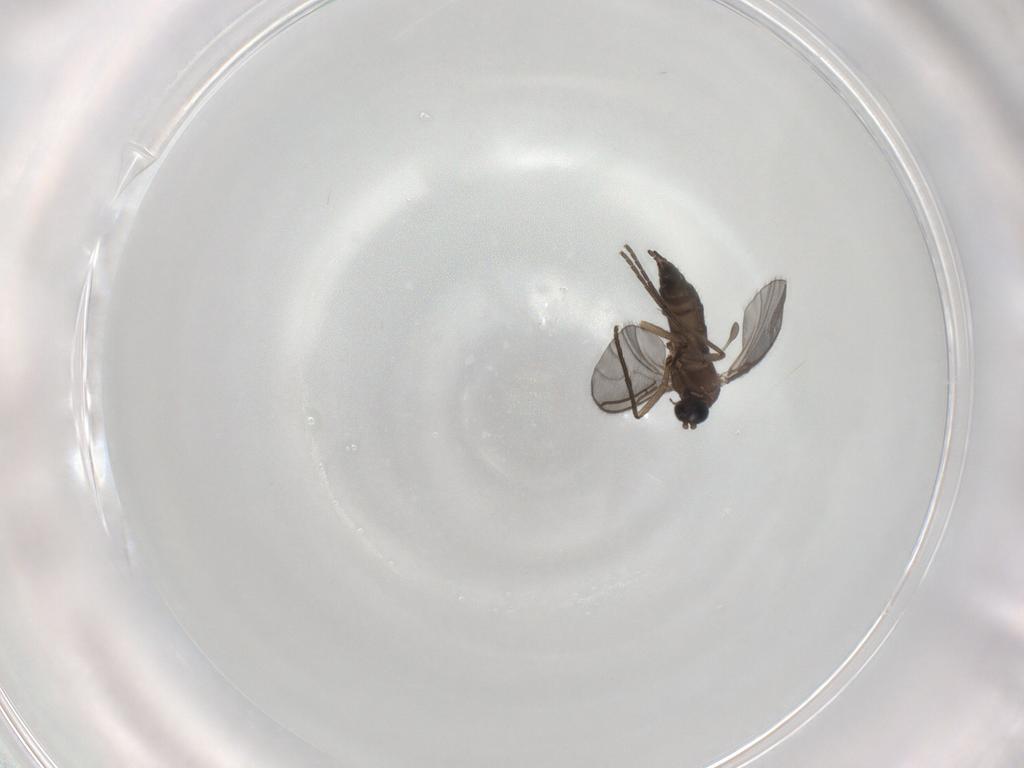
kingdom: Animalia
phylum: Arthropoda
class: Insecta
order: Diptera
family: Sciaridae
